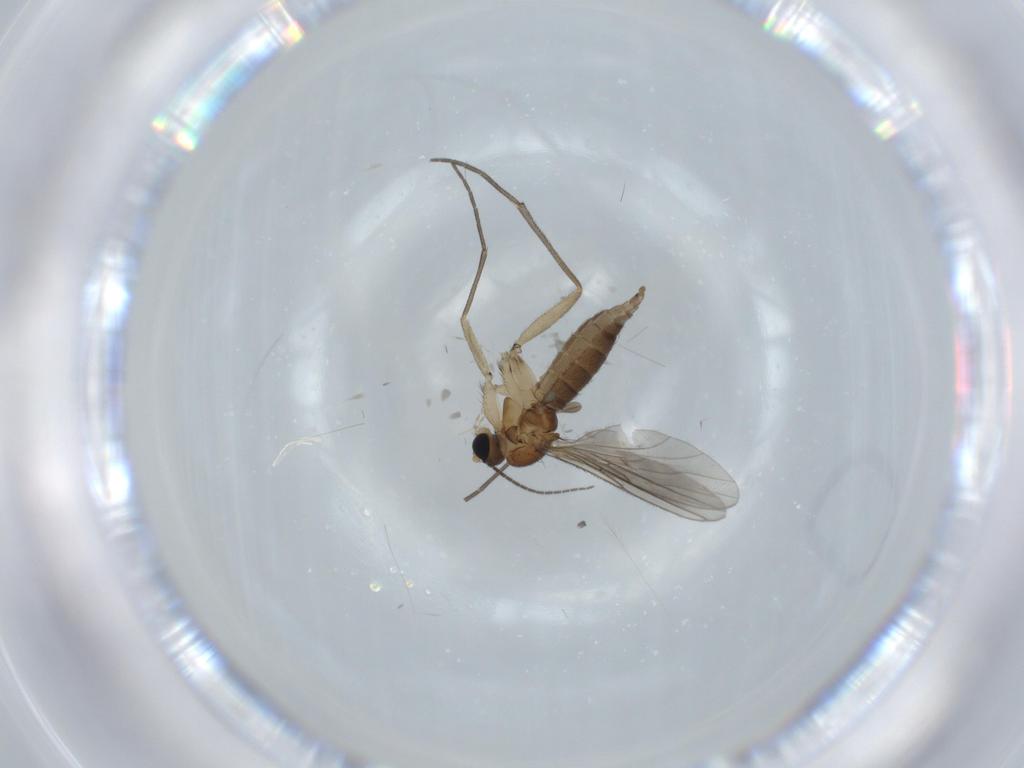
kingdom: Animalia
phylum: Arthropoda
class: Insecta
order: Diptera
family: Sciaridae
